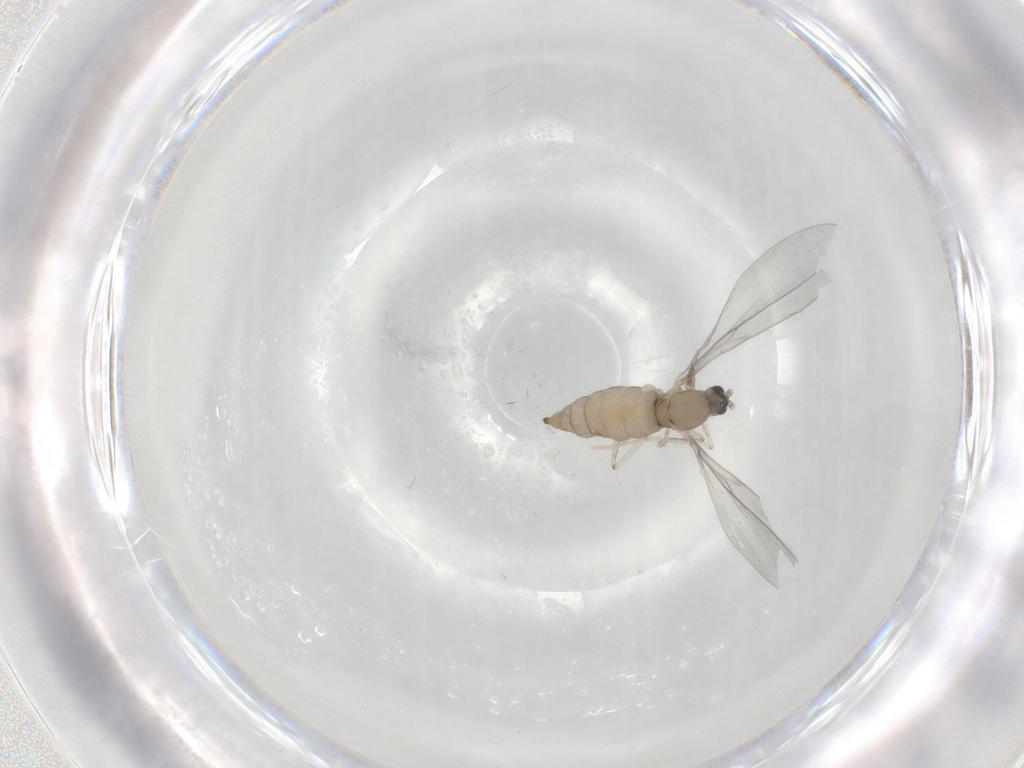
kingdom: Animalia
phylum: Arthropoda
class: Insecta
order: Diptera
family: Cecidomyiidae
